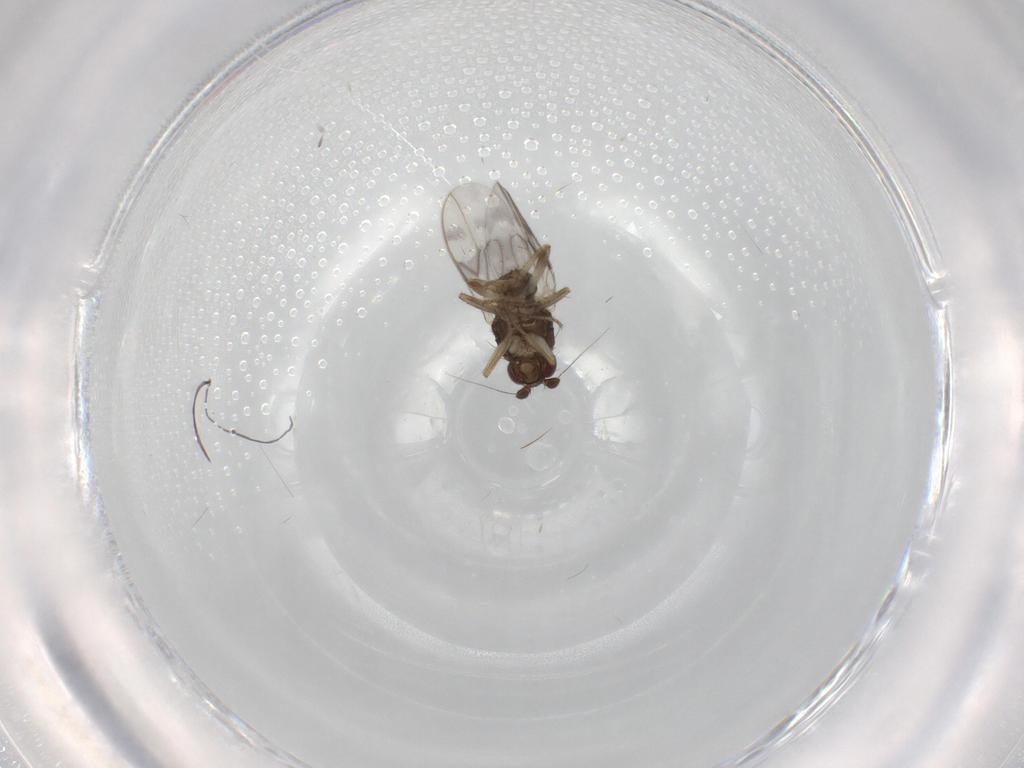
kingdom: Animalia
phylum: Arthropoda
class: Insecta
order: Diptera
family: Sphaeroceridae
